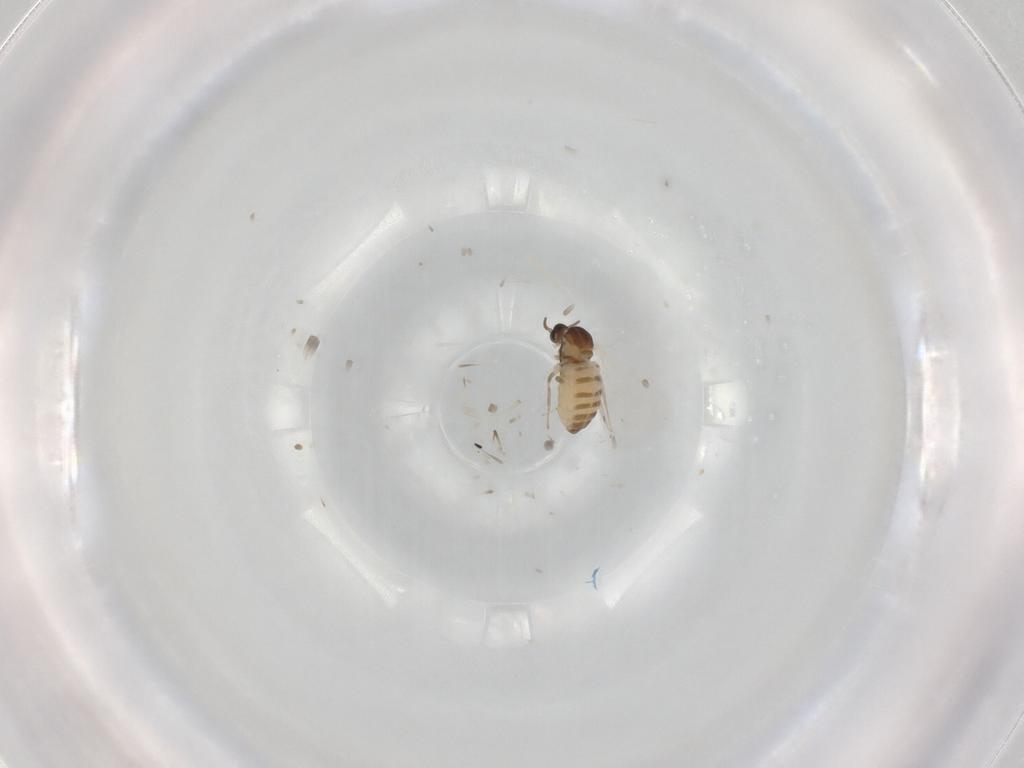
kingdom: Animalia
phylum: Arthropoda
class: Insecta
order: Diptera
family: Cecidomyiidae
